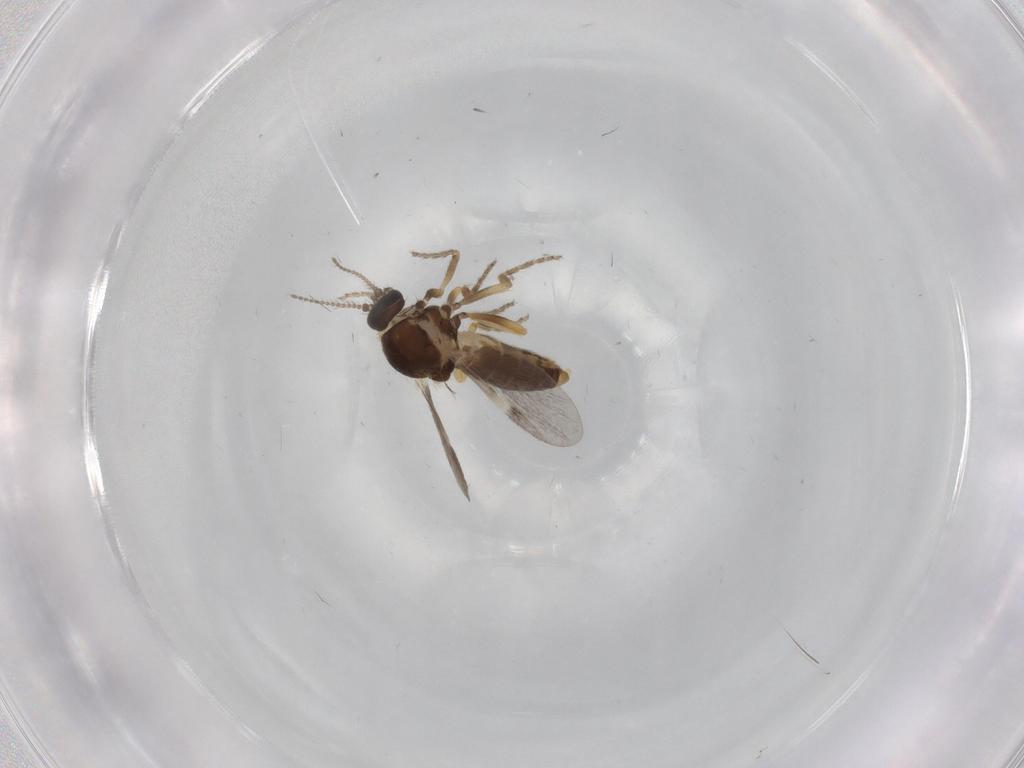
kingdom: Animalia
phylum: Arthropoda
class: Insecta
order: Diptera
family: Ceratopogonidae
